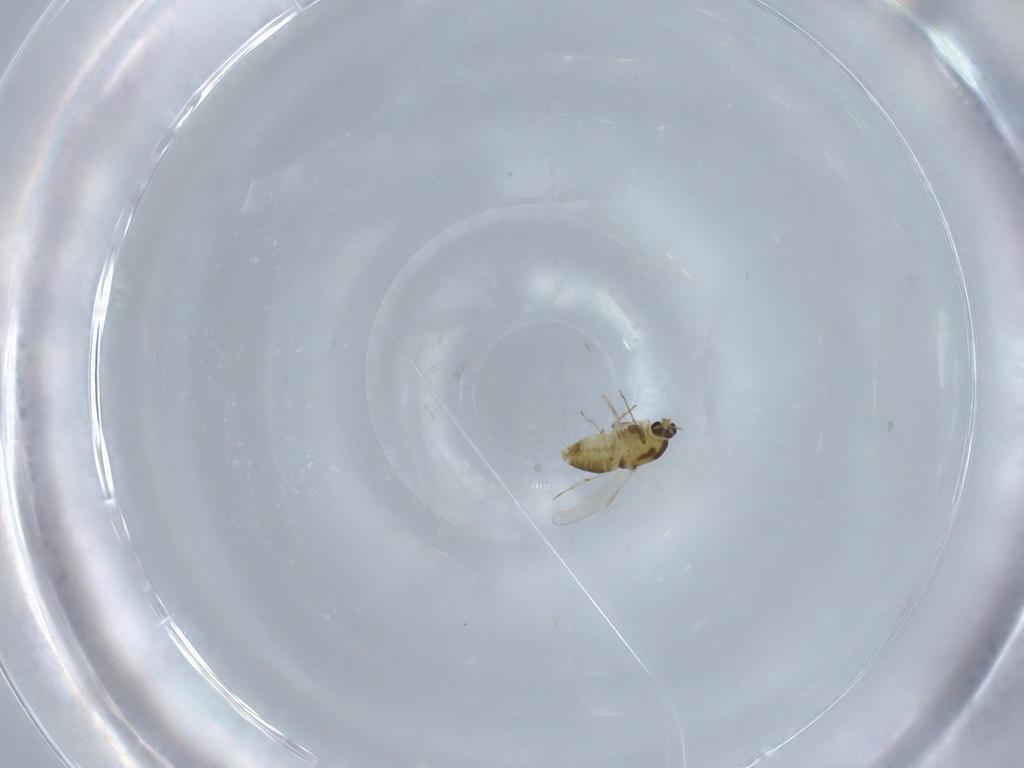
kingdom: Animalia
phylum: Arthropoda
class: Insecta
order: Diptera
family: Chironomidae
